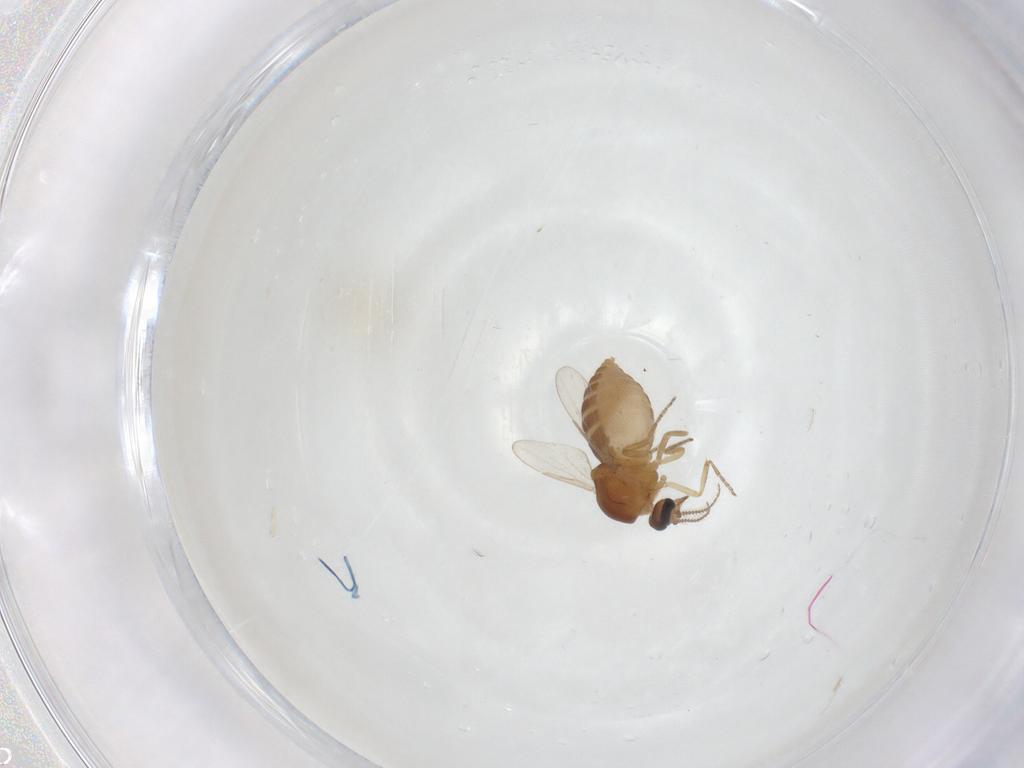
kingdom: Animalia
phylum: Arthropoda
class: Insecta
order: Diptera
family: Ceratopogonidae
